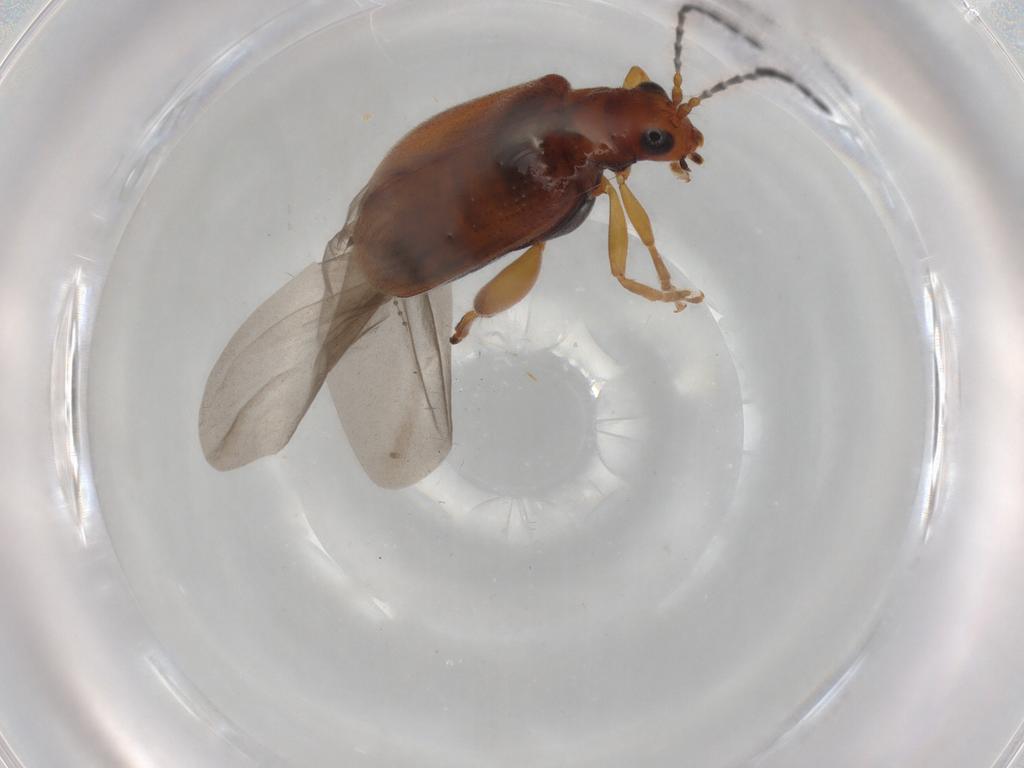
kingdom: Animalia
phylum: Arthropoda
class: Insecta
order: Coleoptera
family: Chrysomelidae
